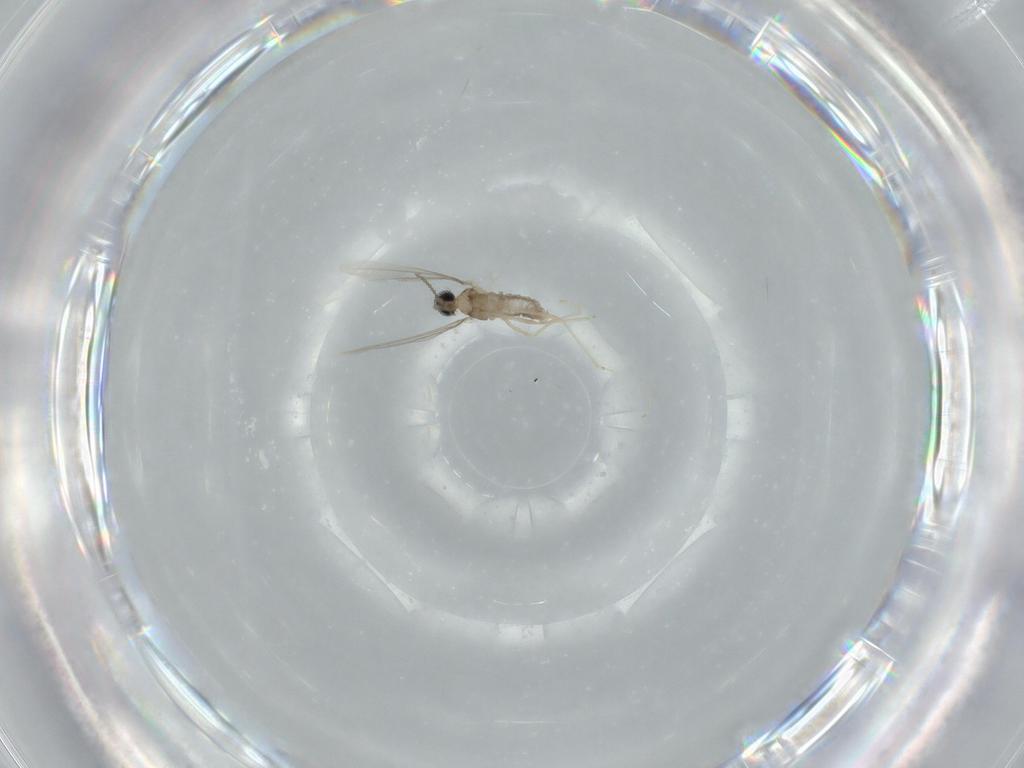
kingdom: Animalia
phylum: Arthropoda
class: Insecta
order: Diptera
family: Cecidomyiidae
